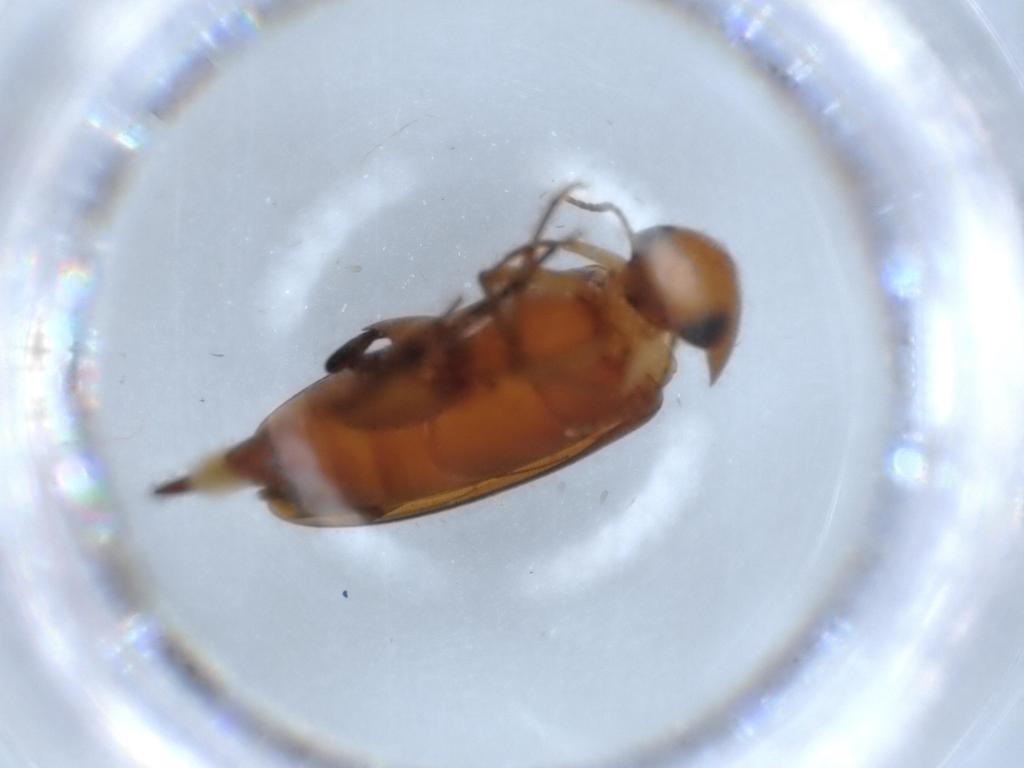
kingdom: Animalia
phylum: Arthropoda
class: Insecta
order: Coleoptera
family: Mordellidae
